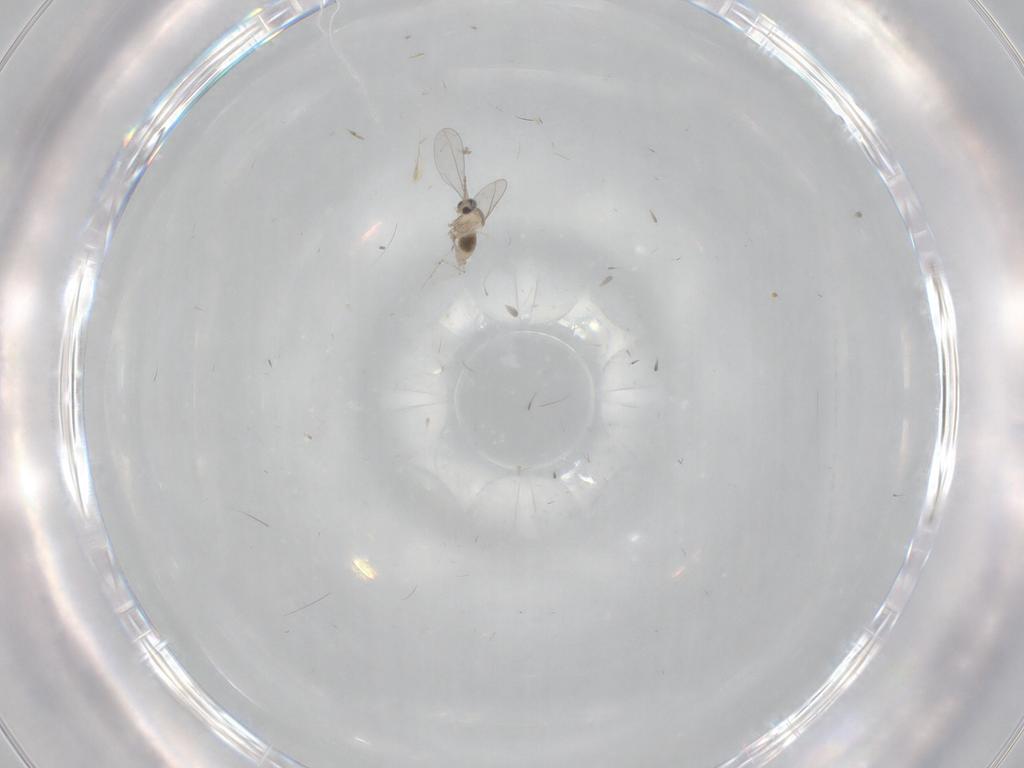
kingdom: Animalia
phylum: Arthropoda
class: Insecta
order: Diptera
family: Cecidomyiidae
